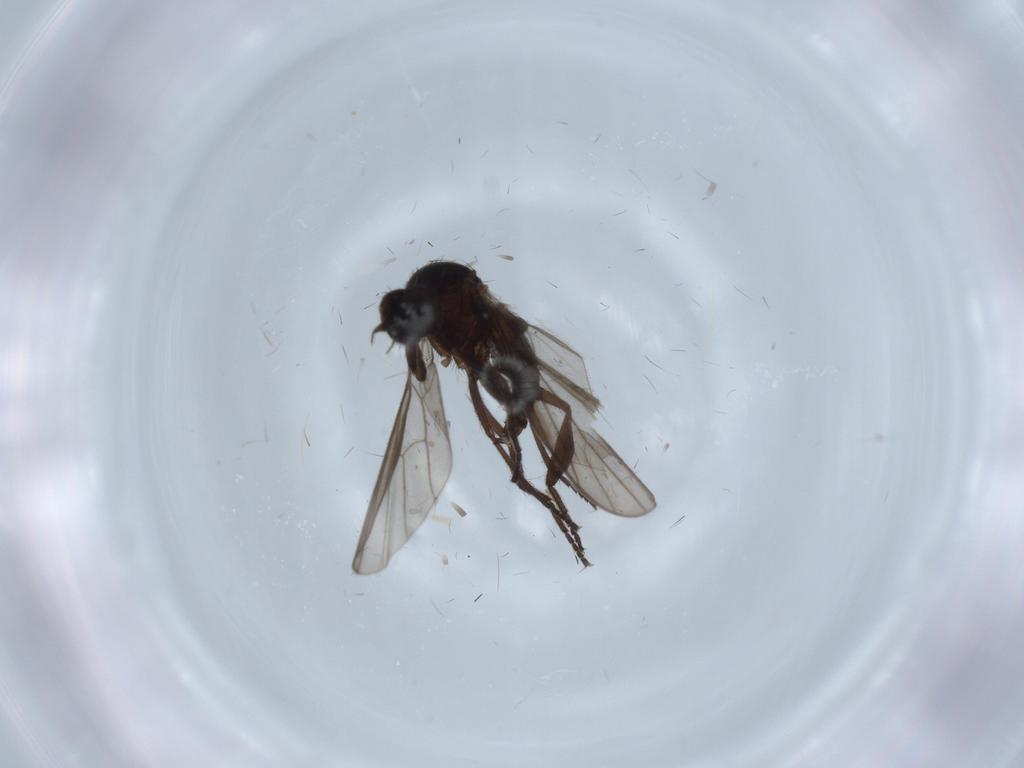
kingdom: Animalia
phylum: Arthropoda
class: Insecta
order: Diptera
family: Empididae
